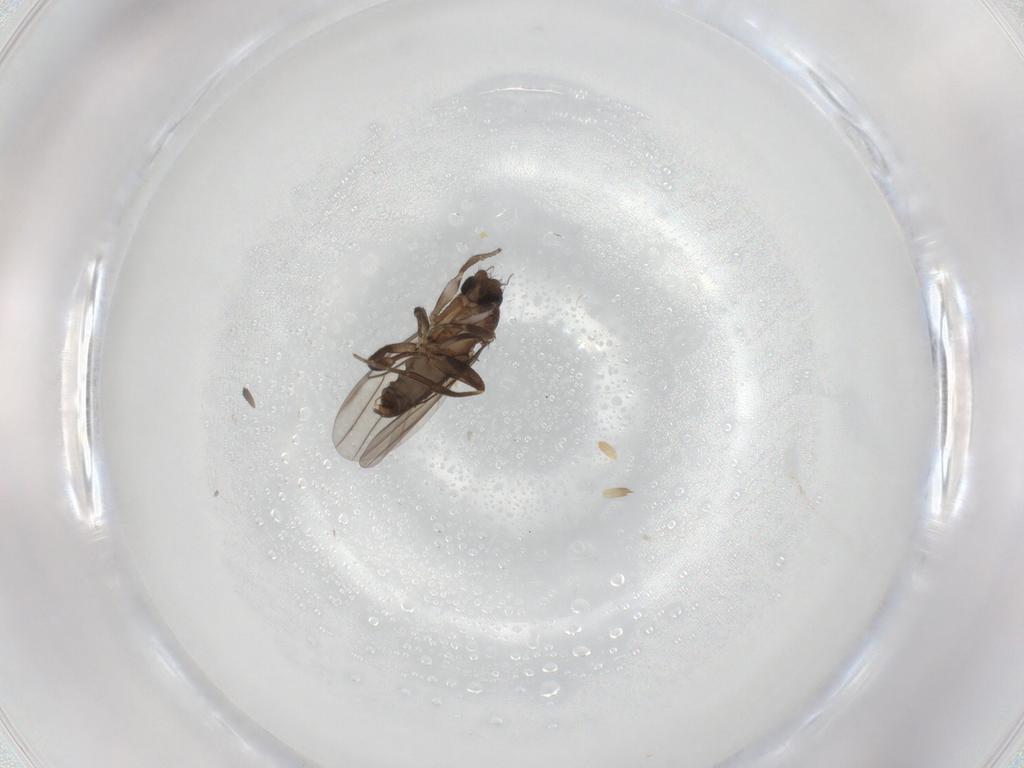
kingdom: Animalia
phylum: Arthropoda
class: Insecta
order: Diptera
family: Phoridae
